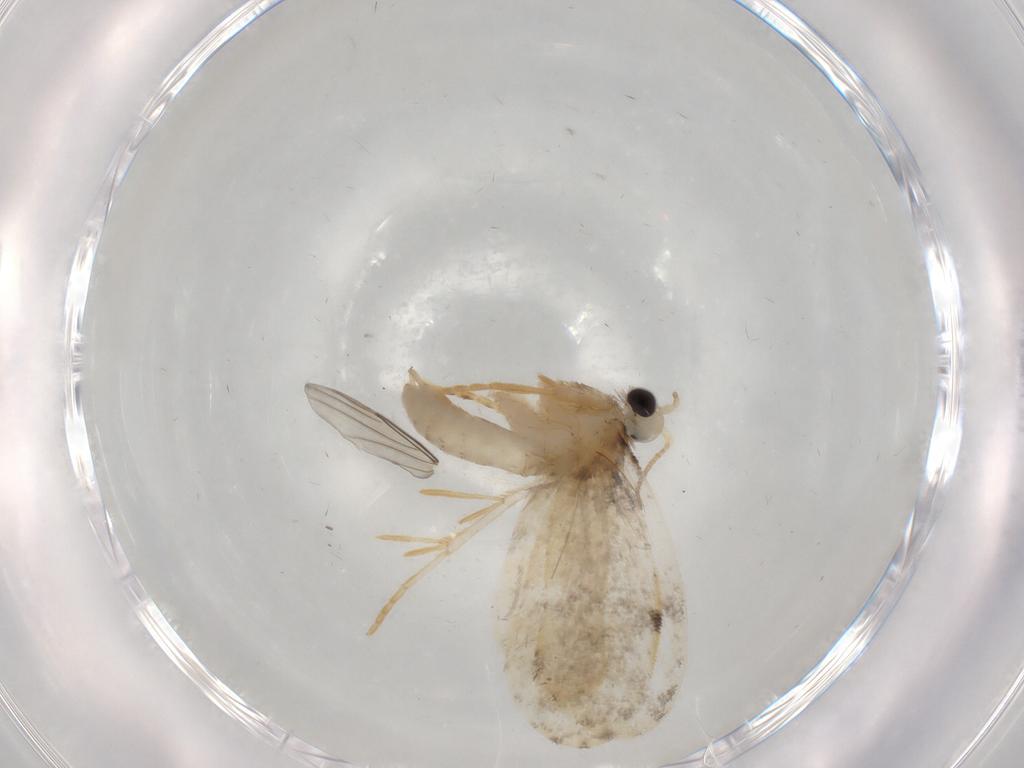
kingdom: Animalia
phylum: Arthropoda
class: Insecta
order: Lepidoptera
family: Psychidae
